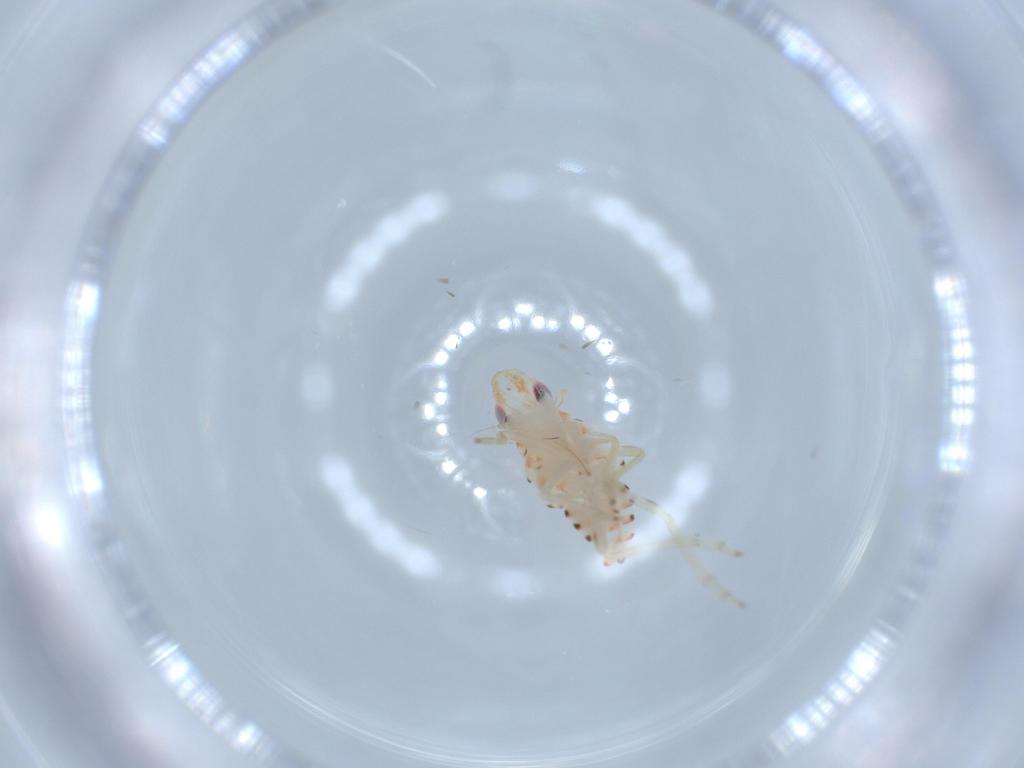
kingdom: Animalia
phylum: Arthropoda
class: Insecta
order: Hemiptera
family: Tropiduchidae
